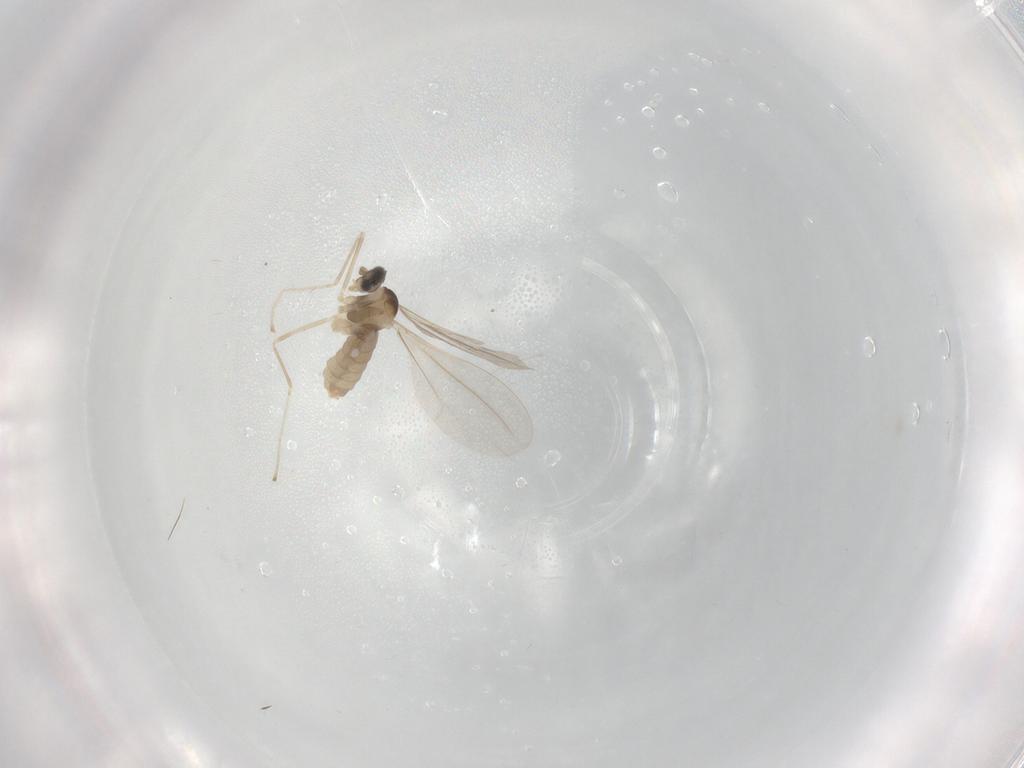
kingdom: Animalia
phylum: Arthropoda
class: Insecta
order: Diptera
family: Cecidomyiidae
